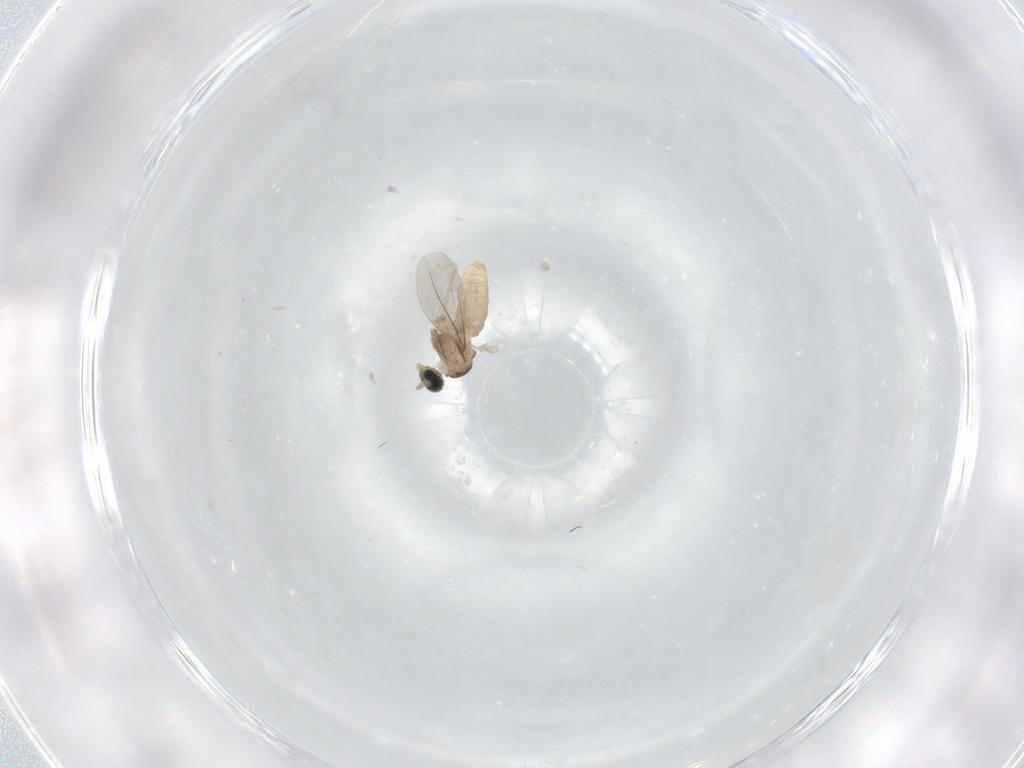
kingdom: Animalia
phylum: Arthropoda
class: Insecta
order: Diptera
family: Cecidomyiidae
